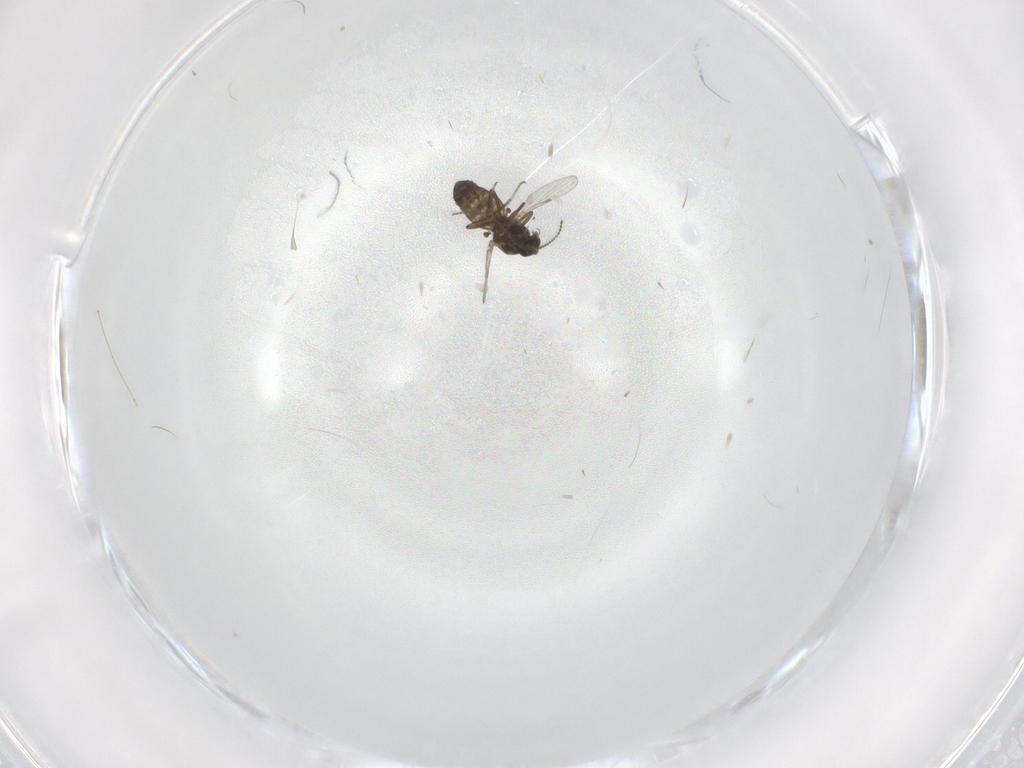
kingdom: Animalia
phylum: Arthropoda
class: Insecta
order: Diptera
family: Ceratopogonidae
